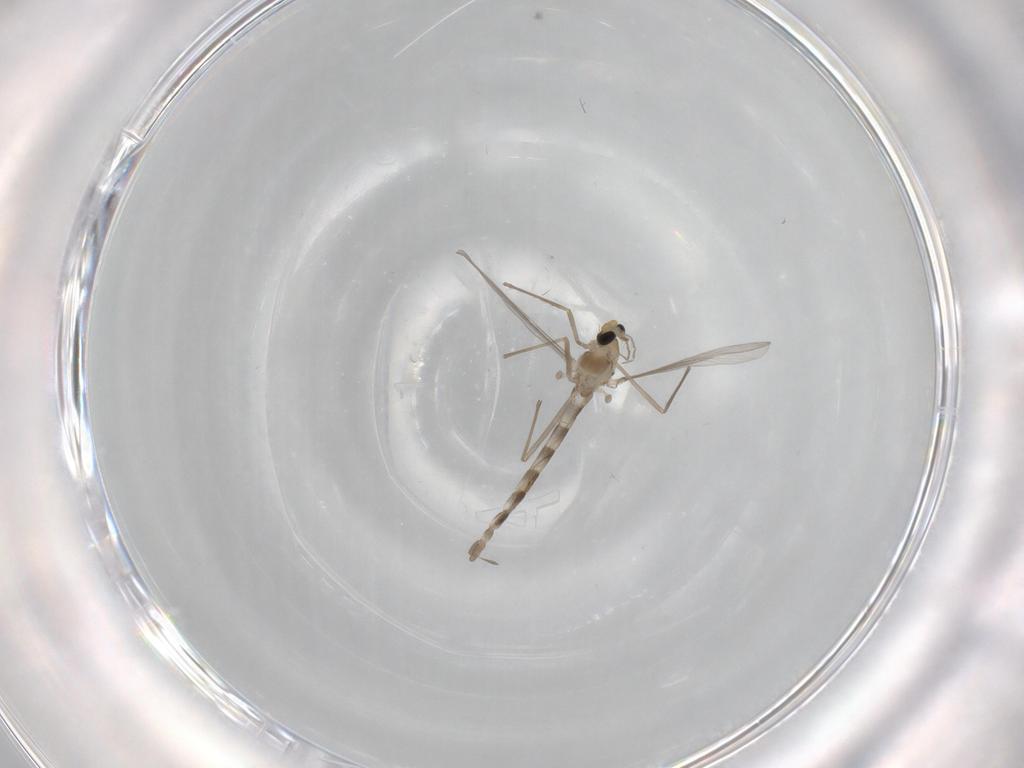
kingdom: Animalia
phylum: Arthropoda
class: Insecta
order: Diptera
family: Chironomidae
